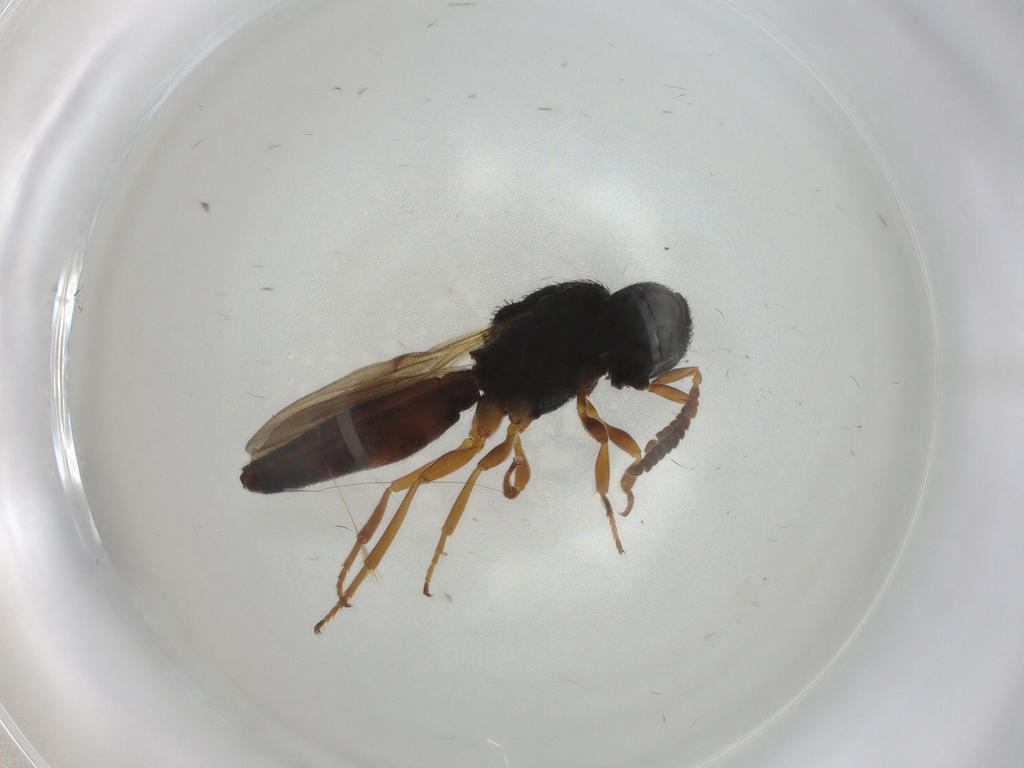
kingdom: Animalia
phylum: Arthropoda
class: Insecta
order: Hymenoptera
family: Scelionidae
